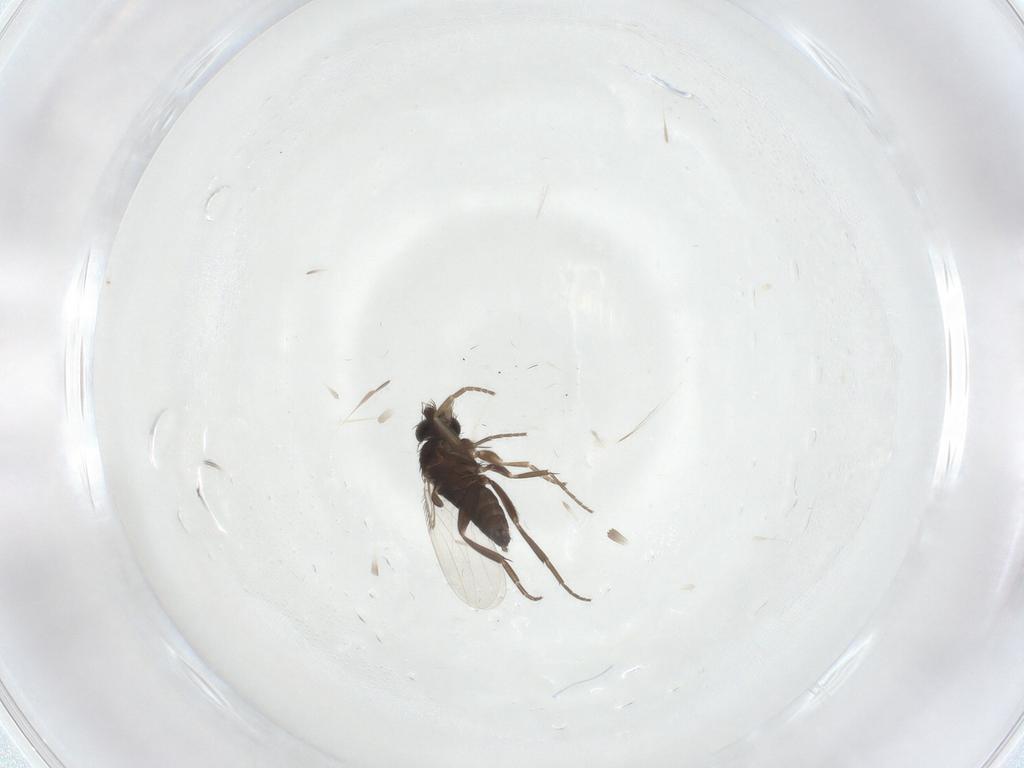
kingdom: Animalia
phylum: Arthropoda
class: Insecta
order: Diptera
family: Phoridae
